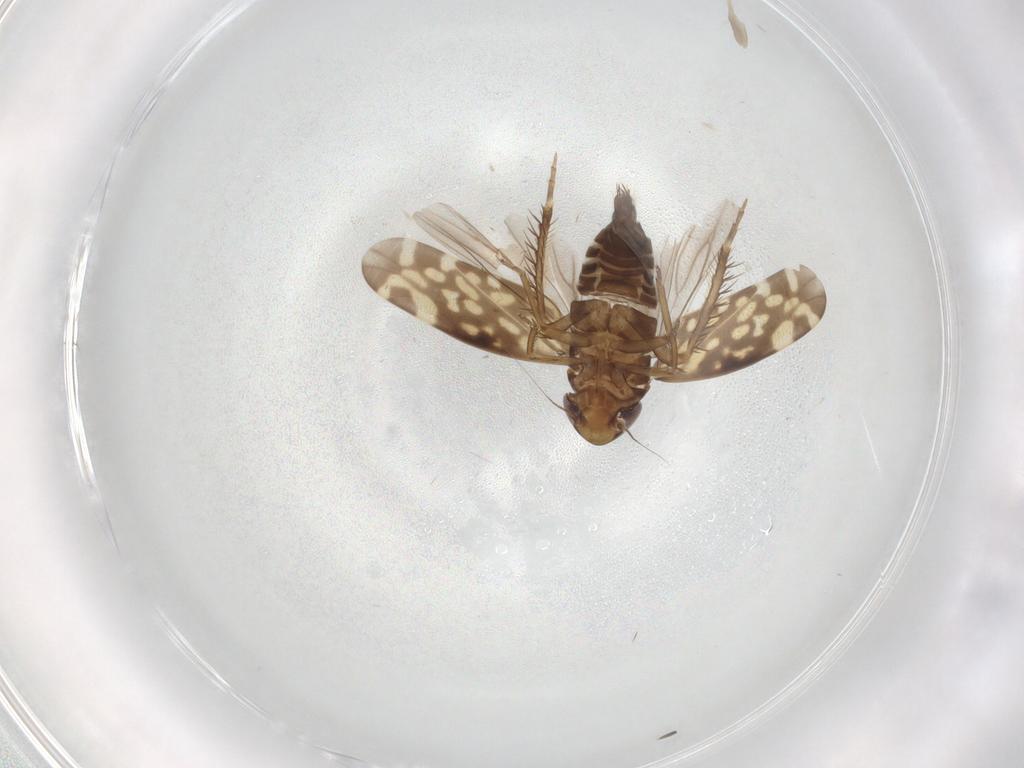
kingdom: Animalia
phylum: Arthropoda
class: Insecta
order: Hemiptera
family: Cicadellidae
